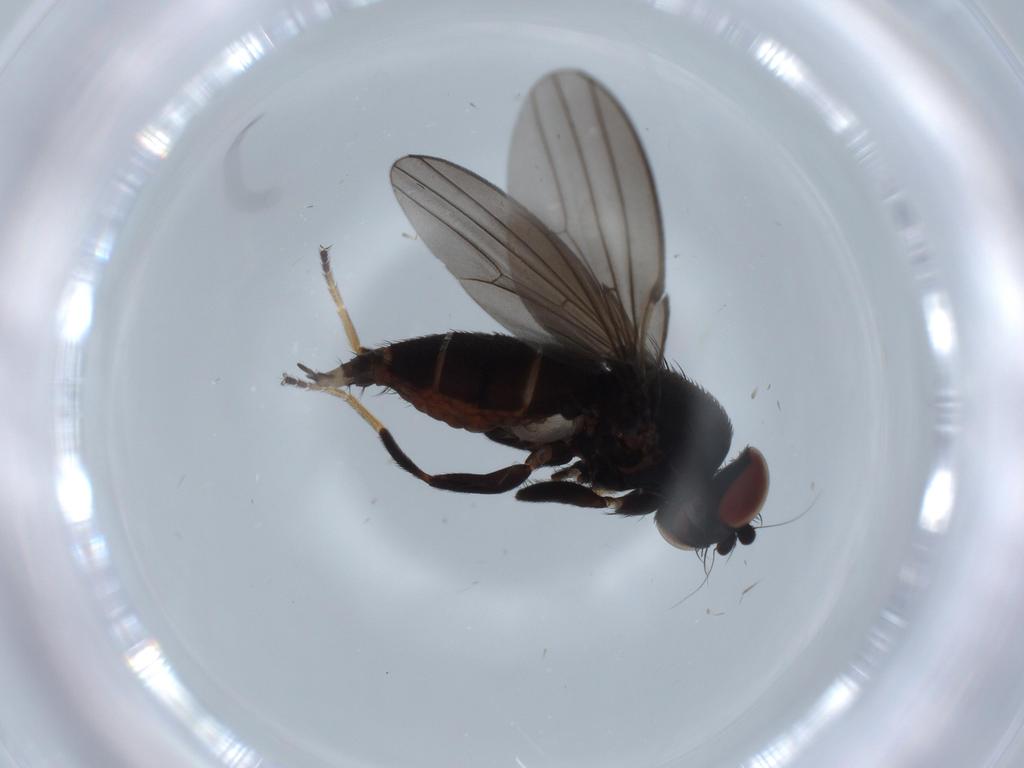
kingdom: Animalia
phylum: Arthropoda
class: Insecta
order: Diptera
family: Milichiidae
